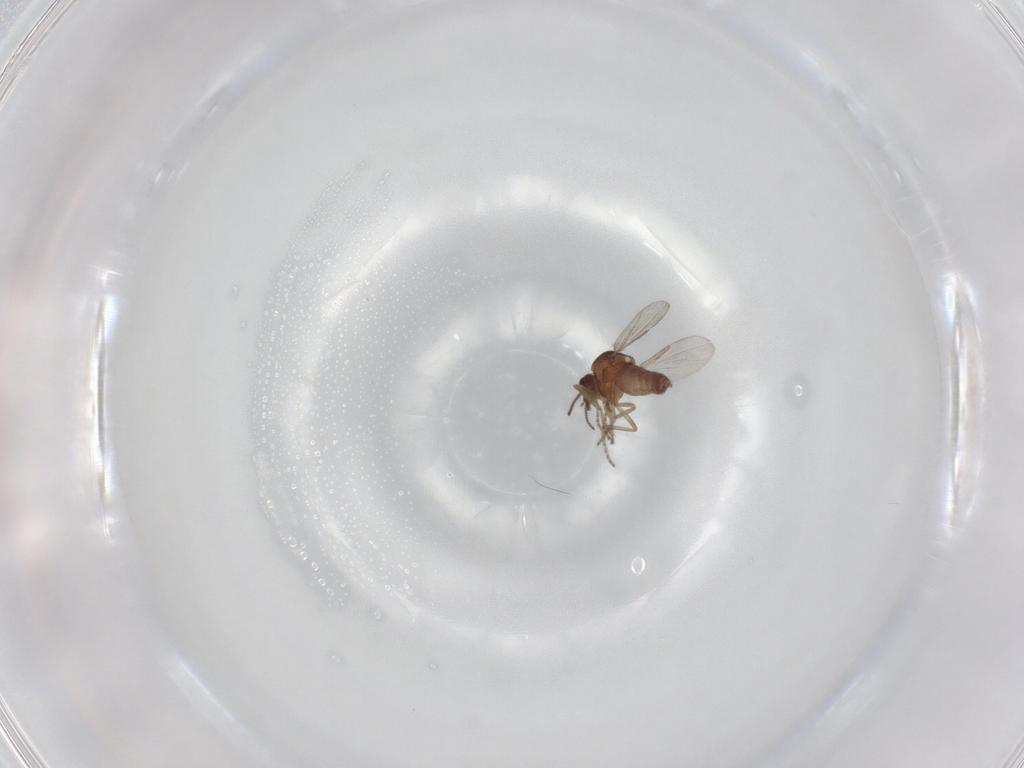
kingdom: Animalia
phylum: Arthropoda
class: Insecta
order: Diptera
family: Ceratopogonidae
